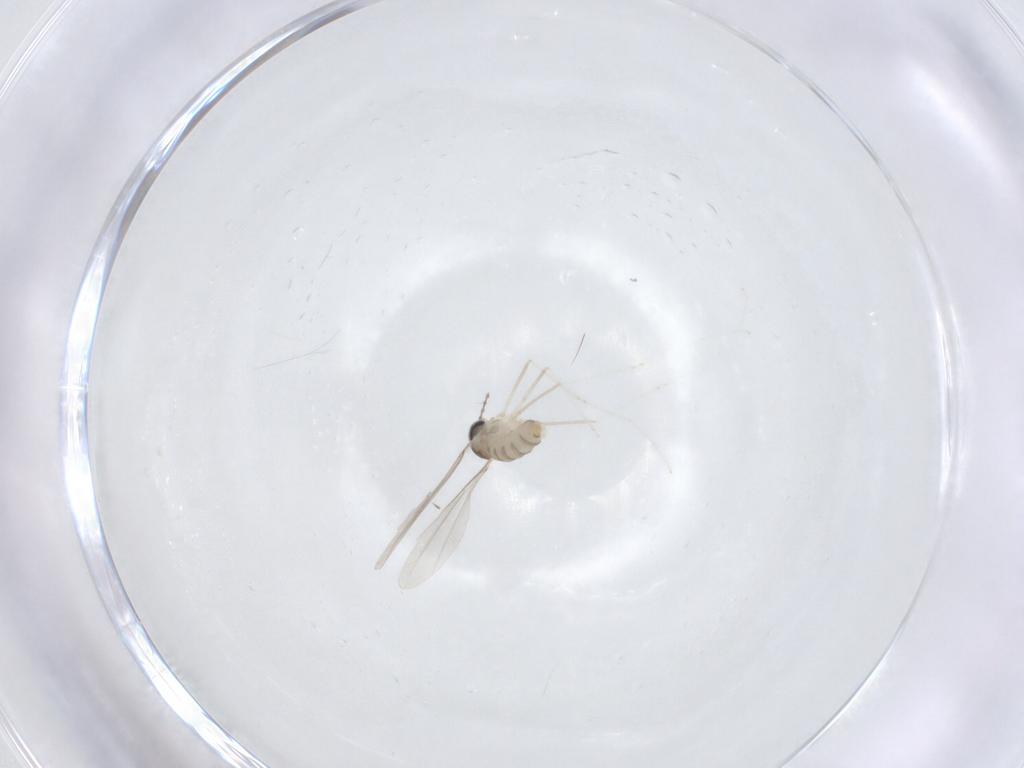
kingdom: Animalia
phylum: Arthropoda
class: Insecta
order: Diptera
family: Cecidomyiidae
